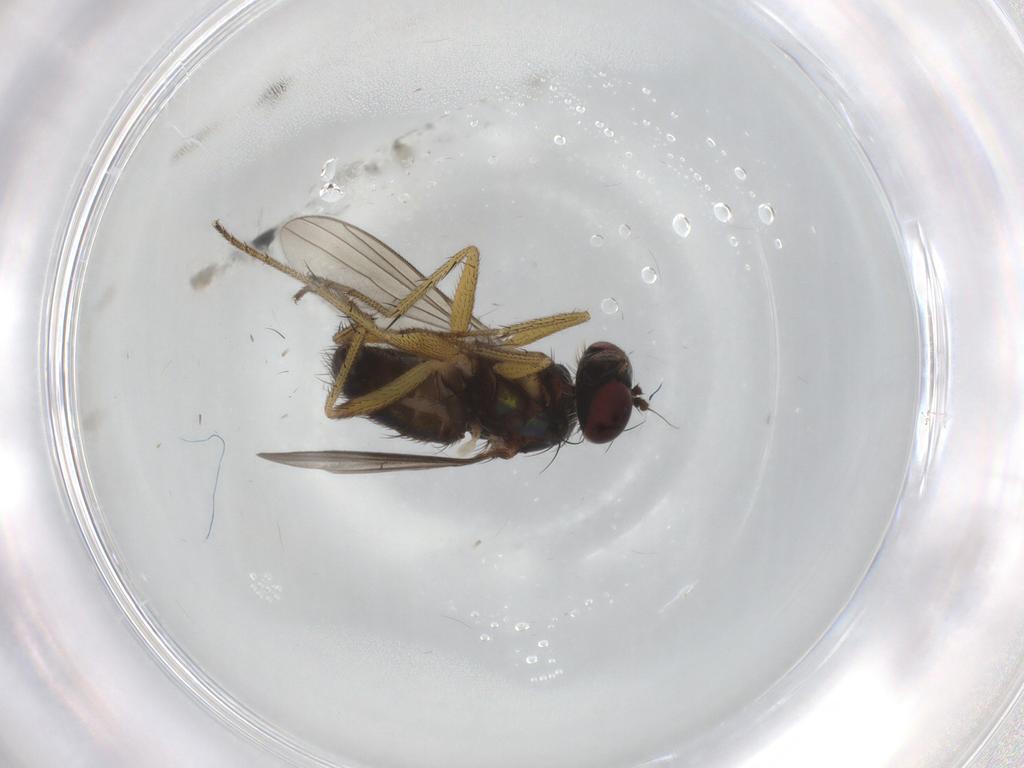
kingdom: Animalia
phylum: Arthropoda
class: Insecta
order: Diptera
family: Dolichopodidae
